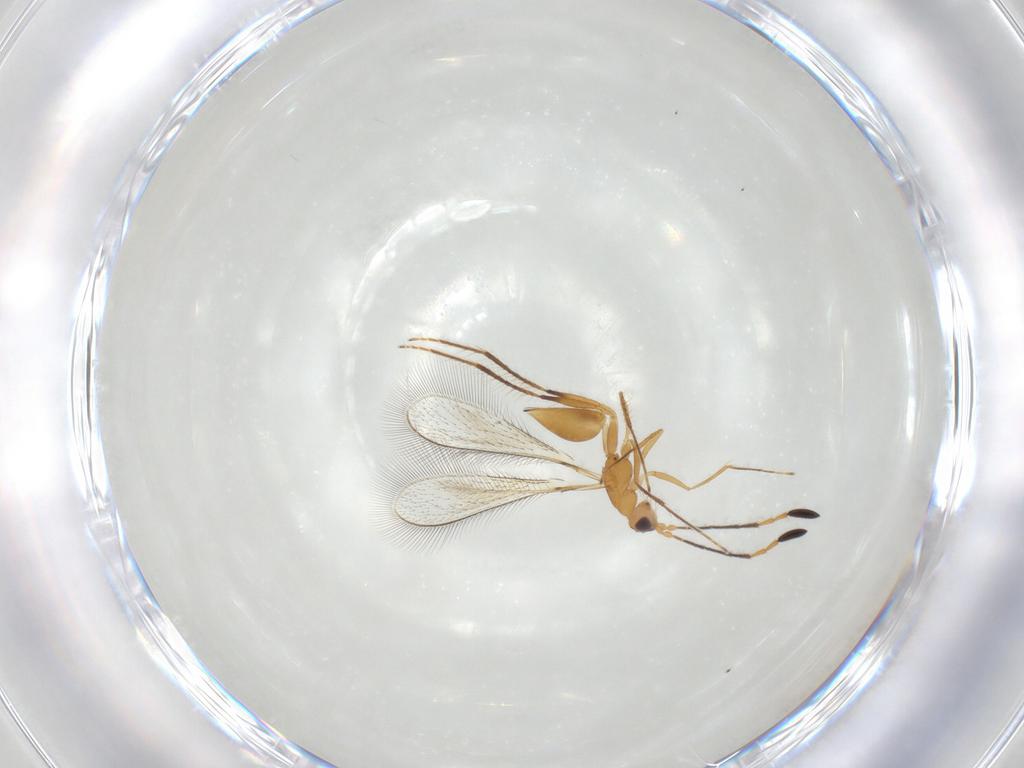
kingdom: Animalia
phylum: Arthropoda
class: Insecta
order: Hymenoptera
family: Mymaridae
